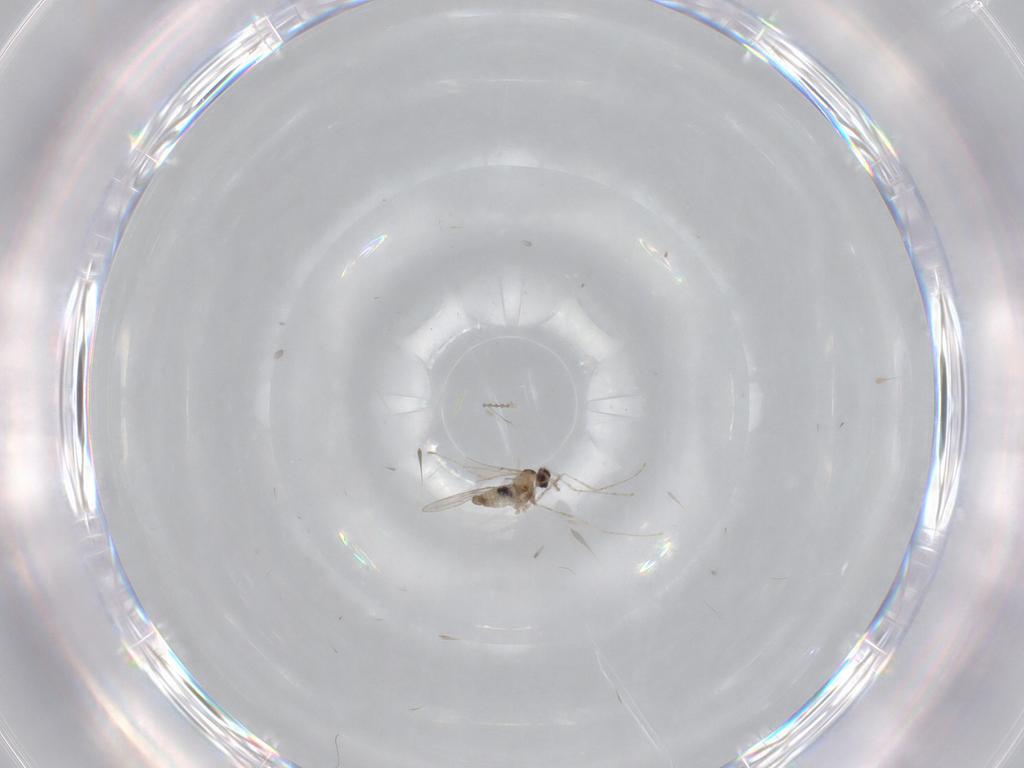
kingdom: Animalia
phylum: Arthropoda
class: Insecta
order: Diptera
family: Cecidomyiidae
